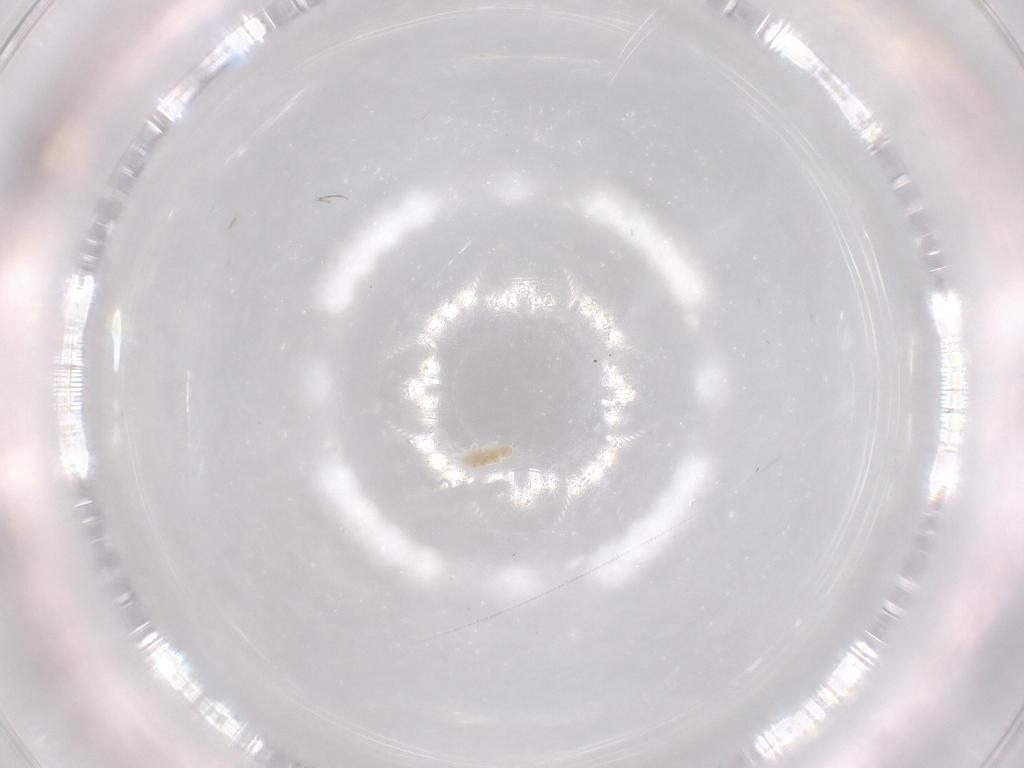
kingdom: Animalia
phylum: Arthropoda
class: Arachnida
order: Trombidiformes
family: Eupodidae
